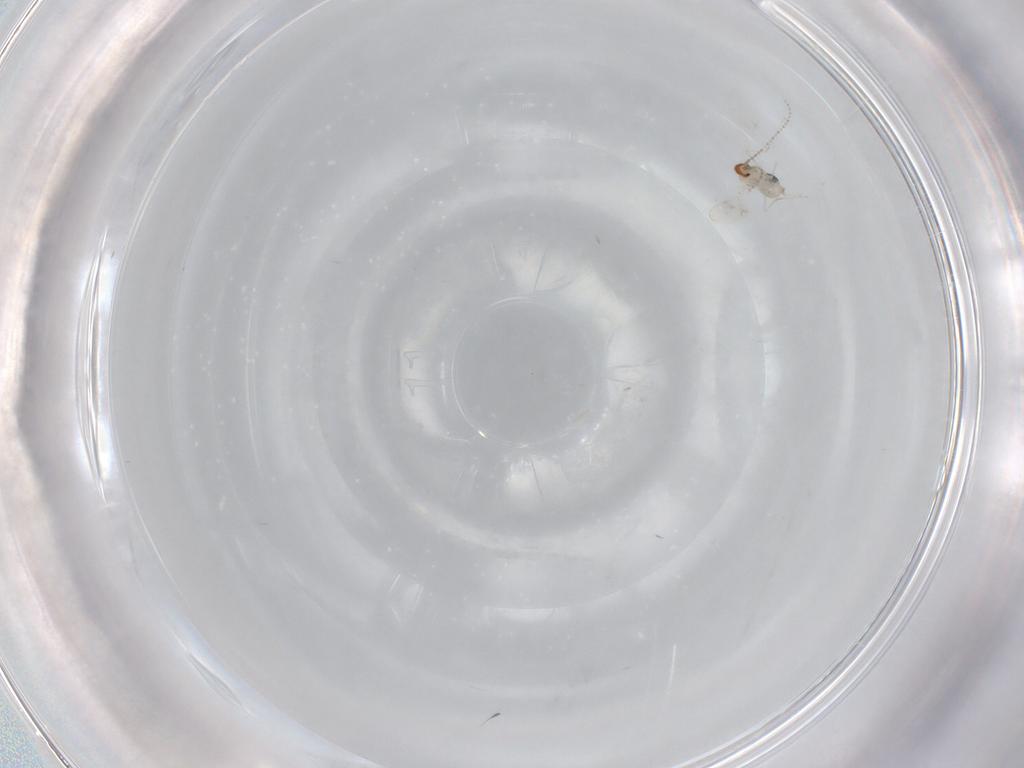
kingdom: Animalia
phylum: Arthropoda
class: Insecta
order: Diptera
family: Cecidomyiidae
